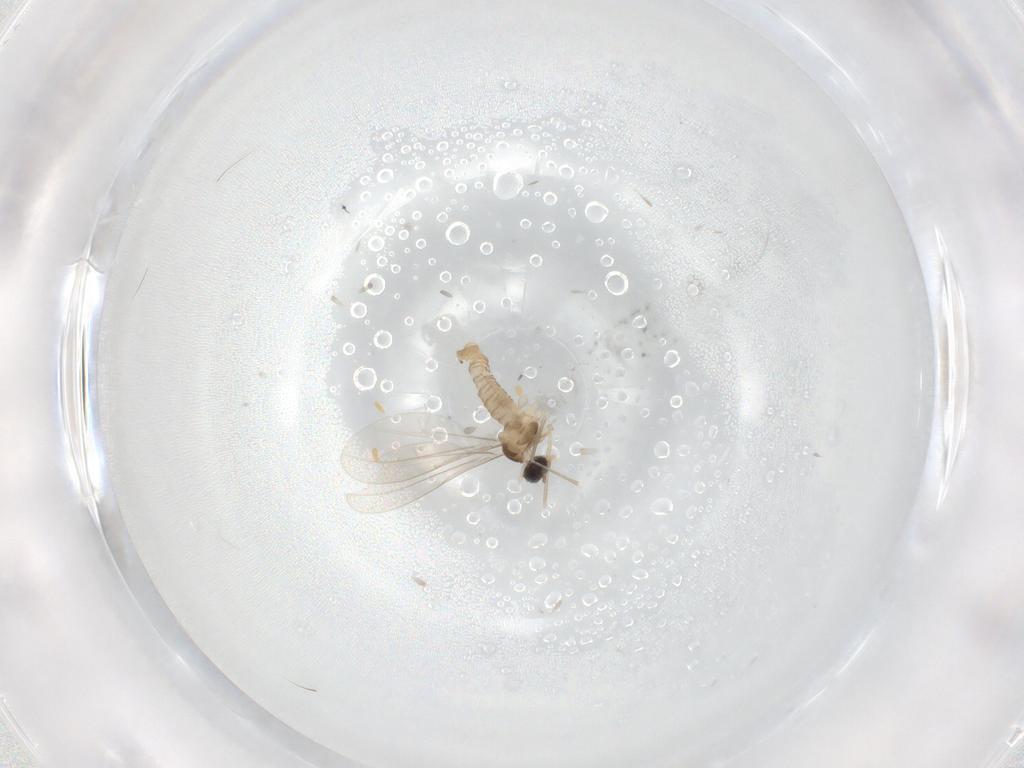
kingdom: Animalia
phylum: Arthropoda
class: Insecta
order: Diptera
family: Cecidomyiidae
